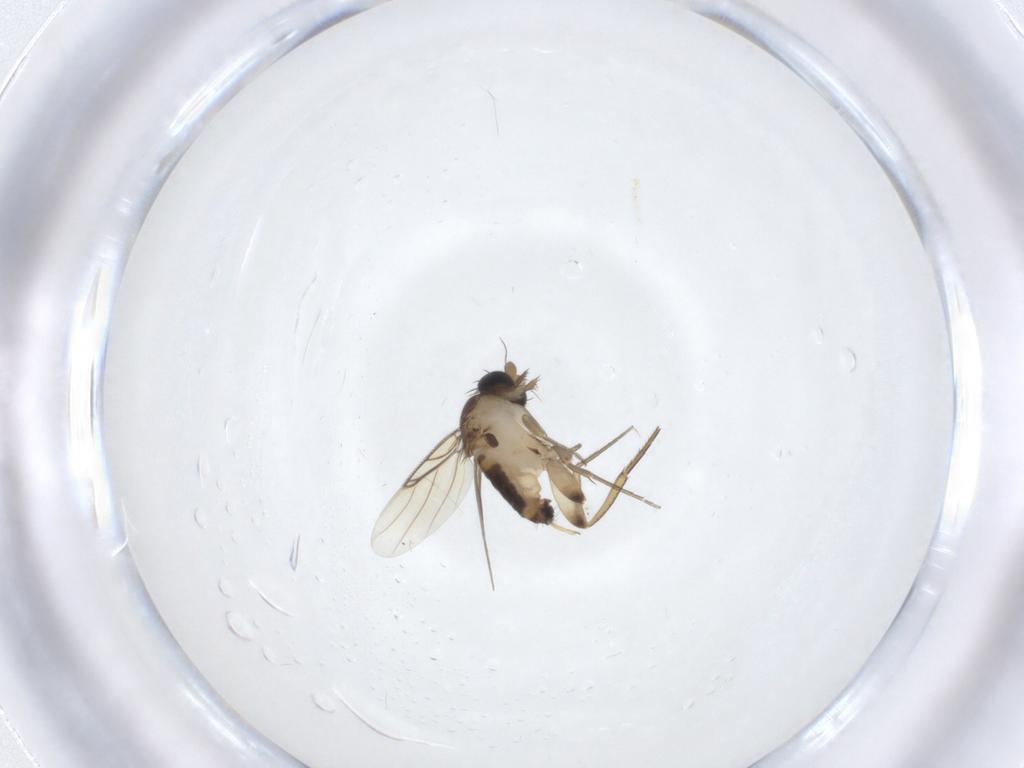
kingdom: Animalia
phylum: Arthropoda
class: Insecta
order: Diptera
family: Phoridae
